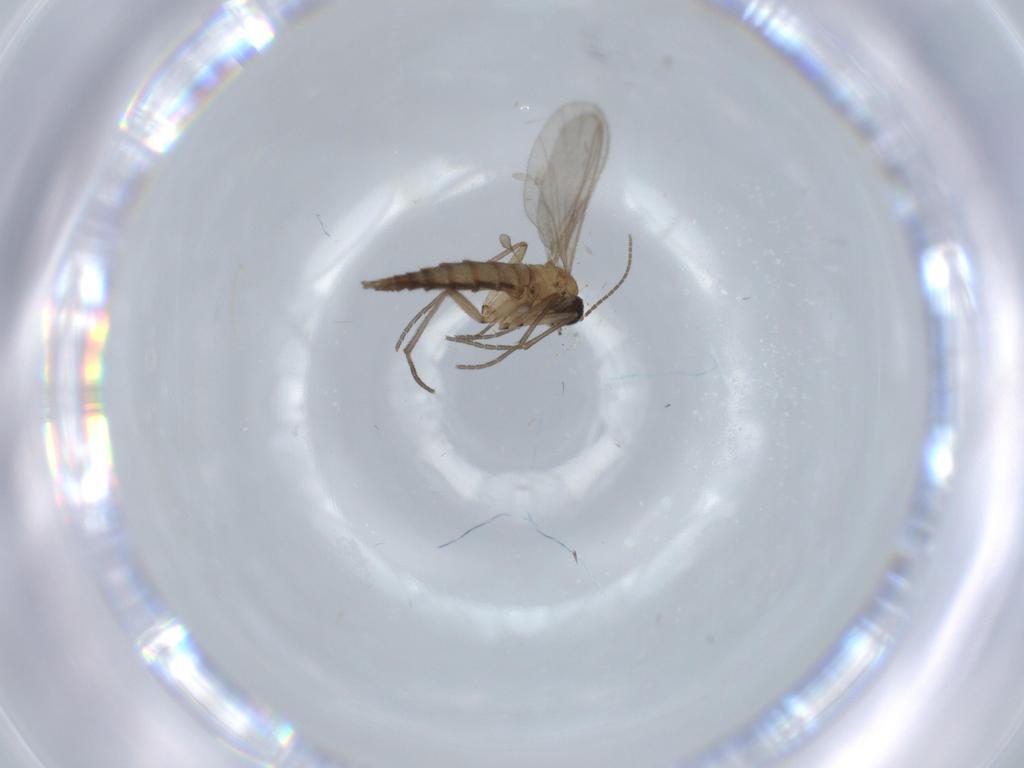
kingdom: Animalia
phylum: Arthropoda
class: Insecta
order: Diptera
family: Sciaridae
